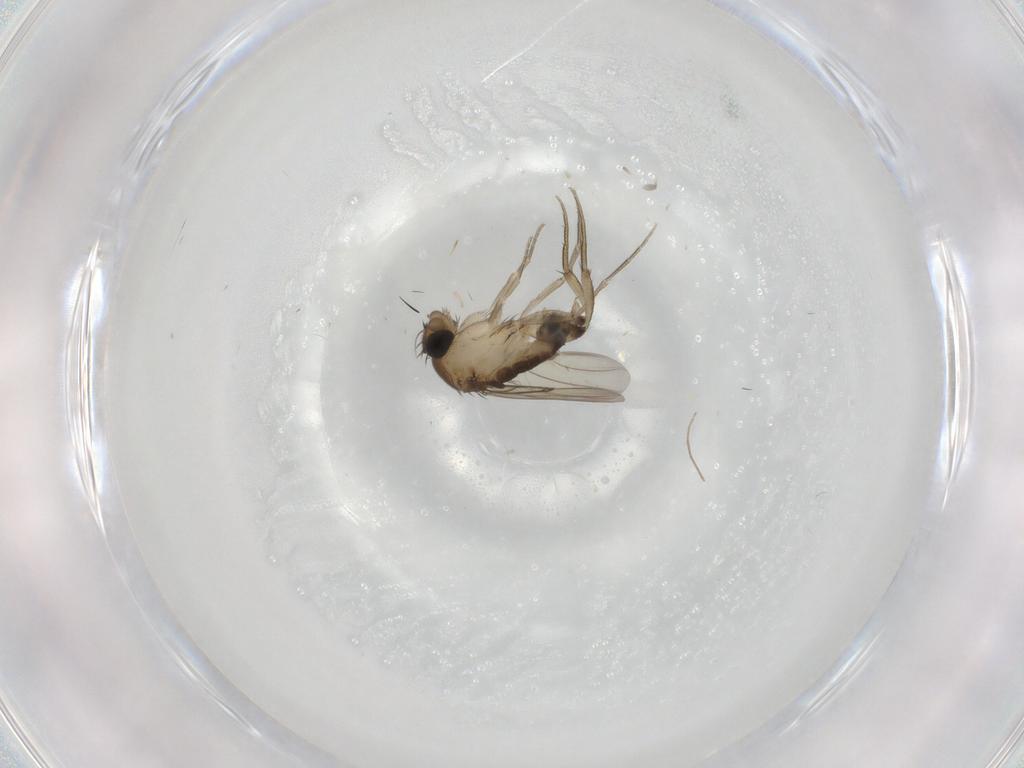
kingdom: Animalia
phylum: Arthropoda
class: Insecta
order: Diptera
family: Phoridae
